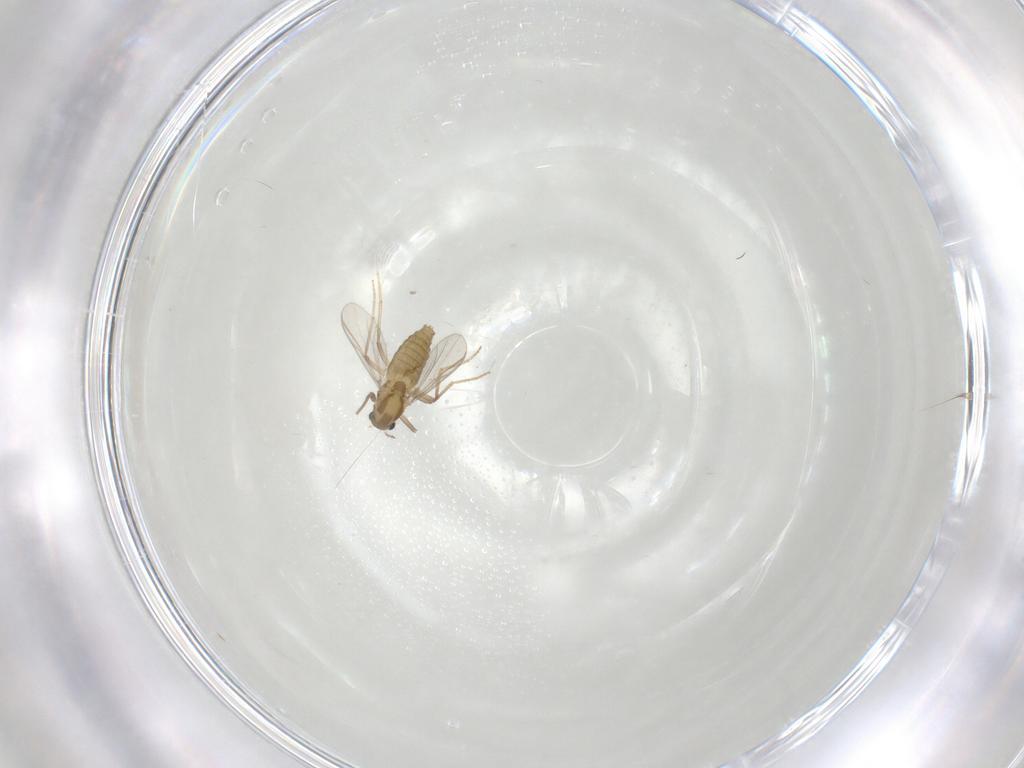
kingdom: Animalia
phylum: Arthropoda
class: Insecta
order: Diptera
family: Chironomidae
